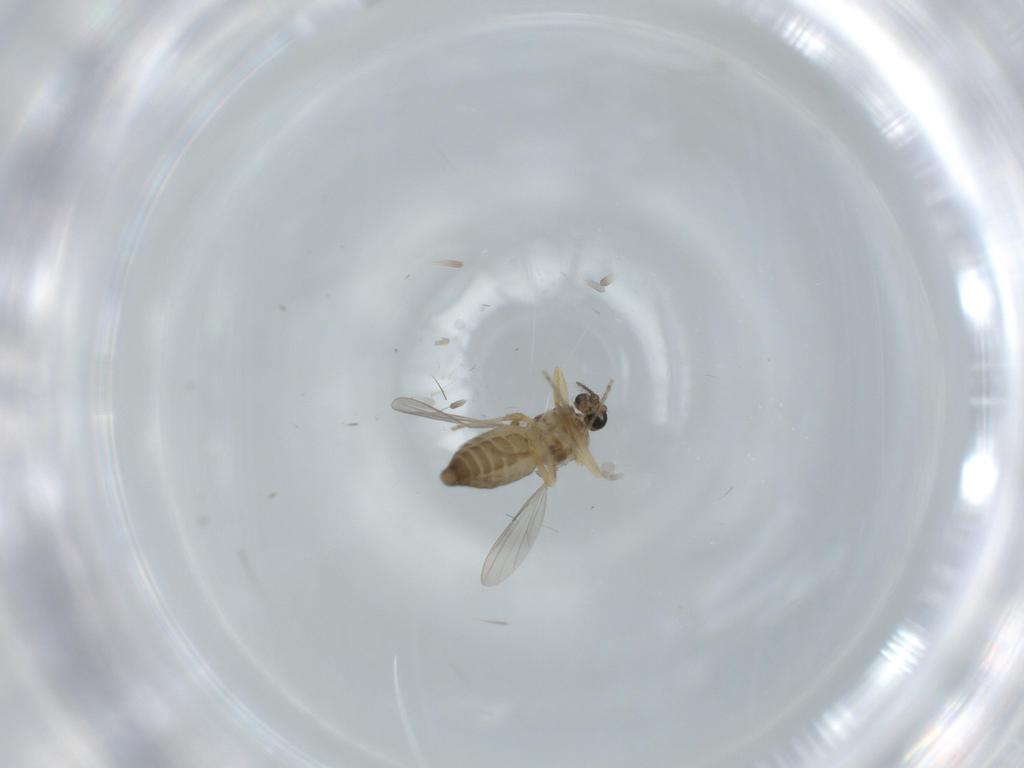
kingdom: Animalia
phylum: Arthropoda
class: Insecta
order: Diptera
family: Ceratopogonidae
